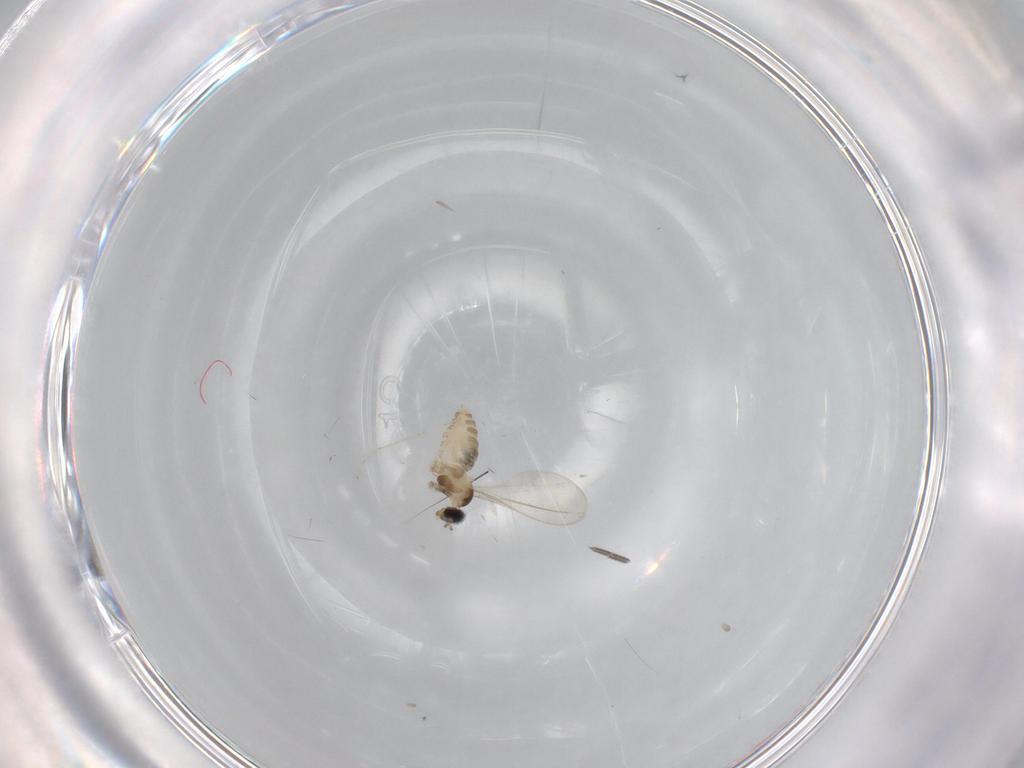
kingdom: Animalia
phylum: Arthropoda
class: Insecta
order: Diptera
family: Cecidomyiidae
